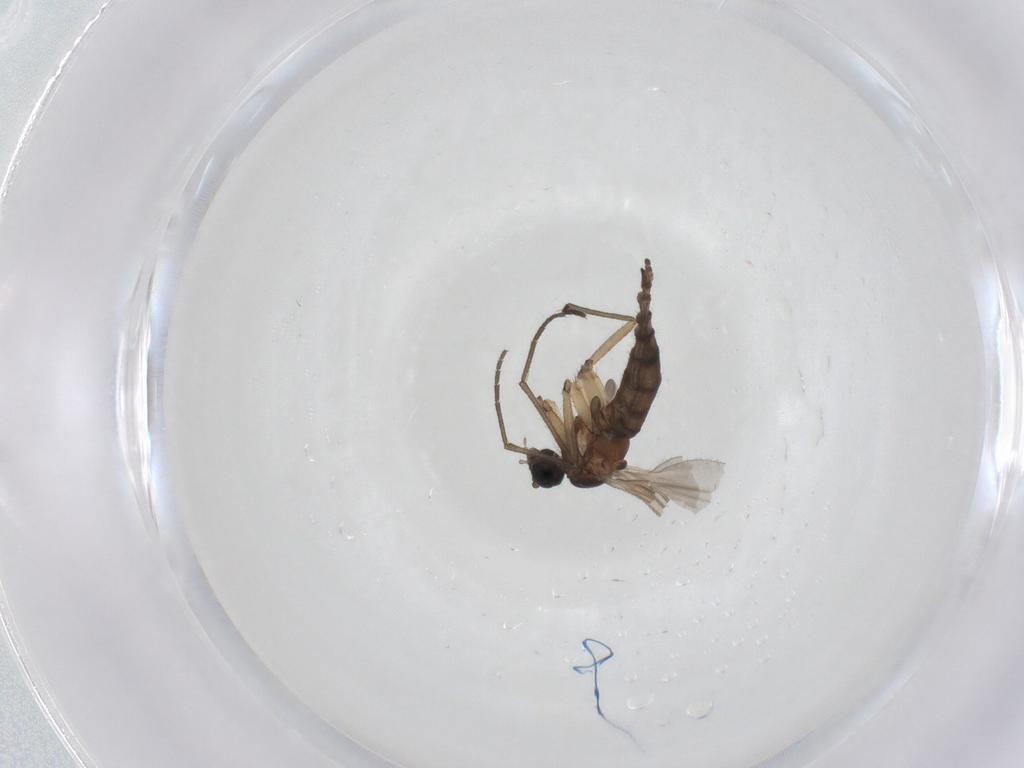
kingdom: Animalia
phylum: Arthropoda
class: Insecta
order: Diptera
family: Sciaridae
